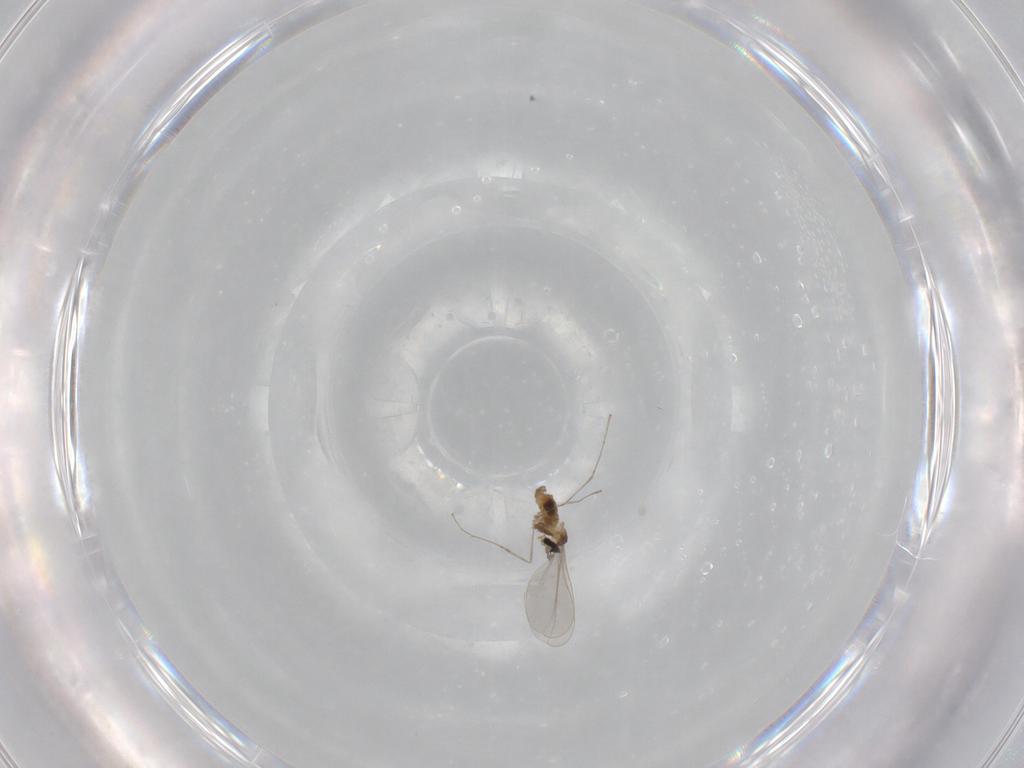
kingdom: Animalia
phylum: Arthropoda
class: Insecta
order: Diptera
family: Cecidomyiidae
